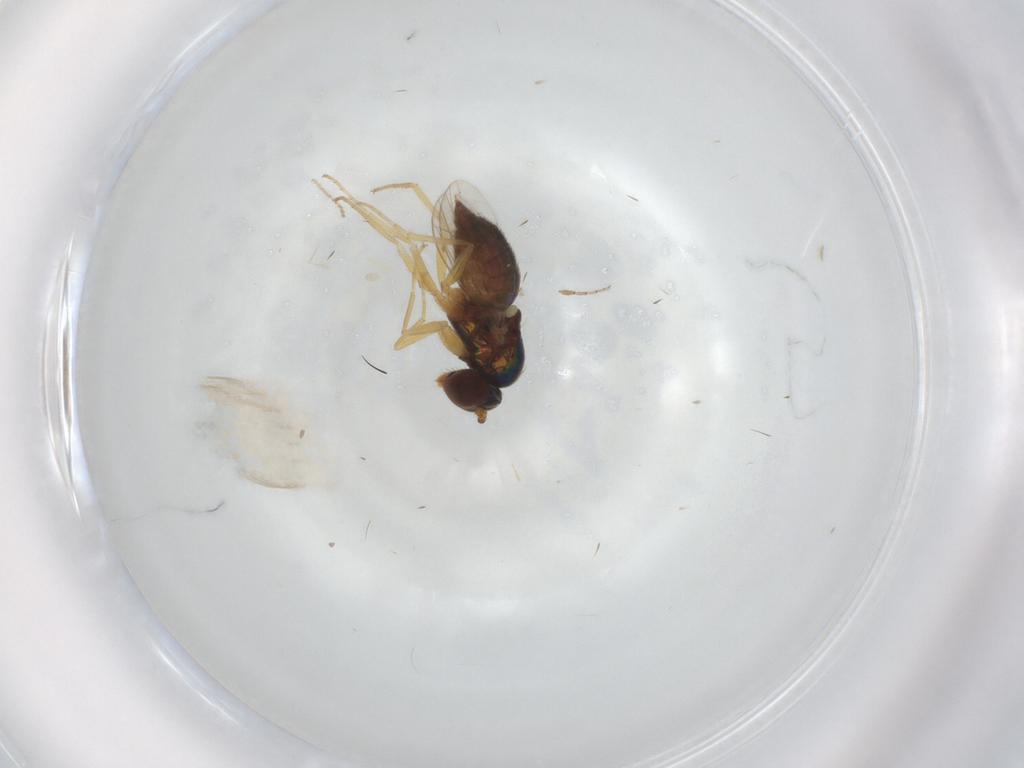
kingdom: Animalia
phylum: Arthropoda
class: Insecta
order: Diptera
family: Dolichopodidae
